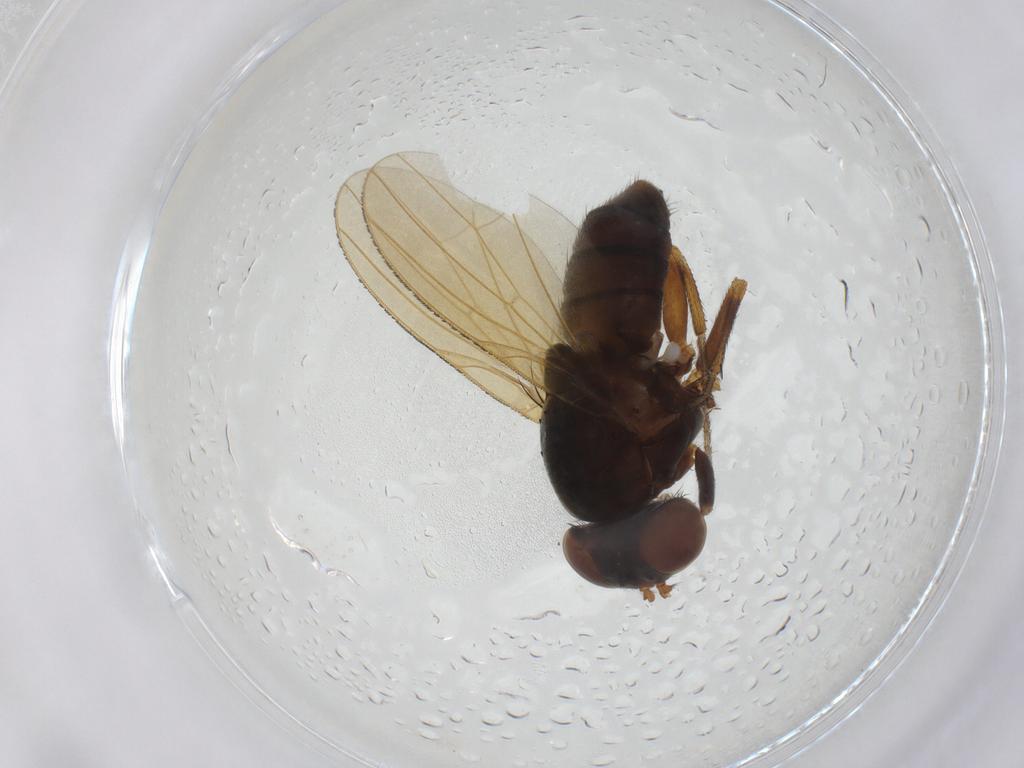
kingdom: Animalia
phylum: Arthropoda
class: Insecta
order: Diptera
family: Lauxaniidae
